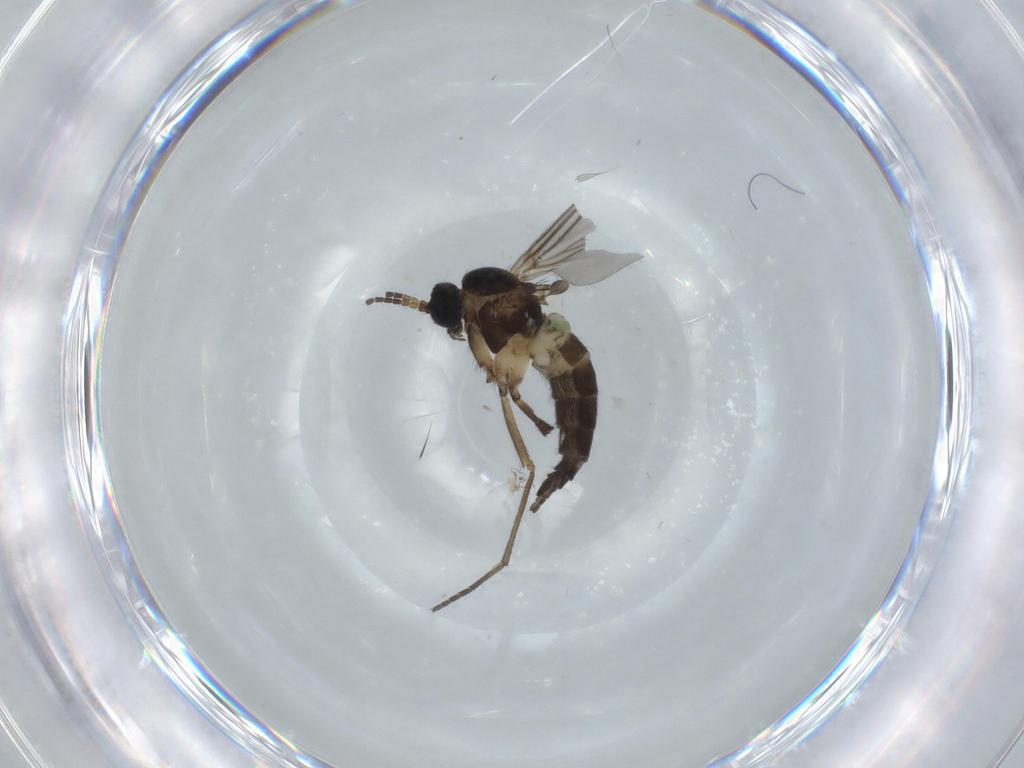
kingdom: Animalia
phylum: Arthropoda
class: Insecta
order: Diptera
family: Sciaridae
